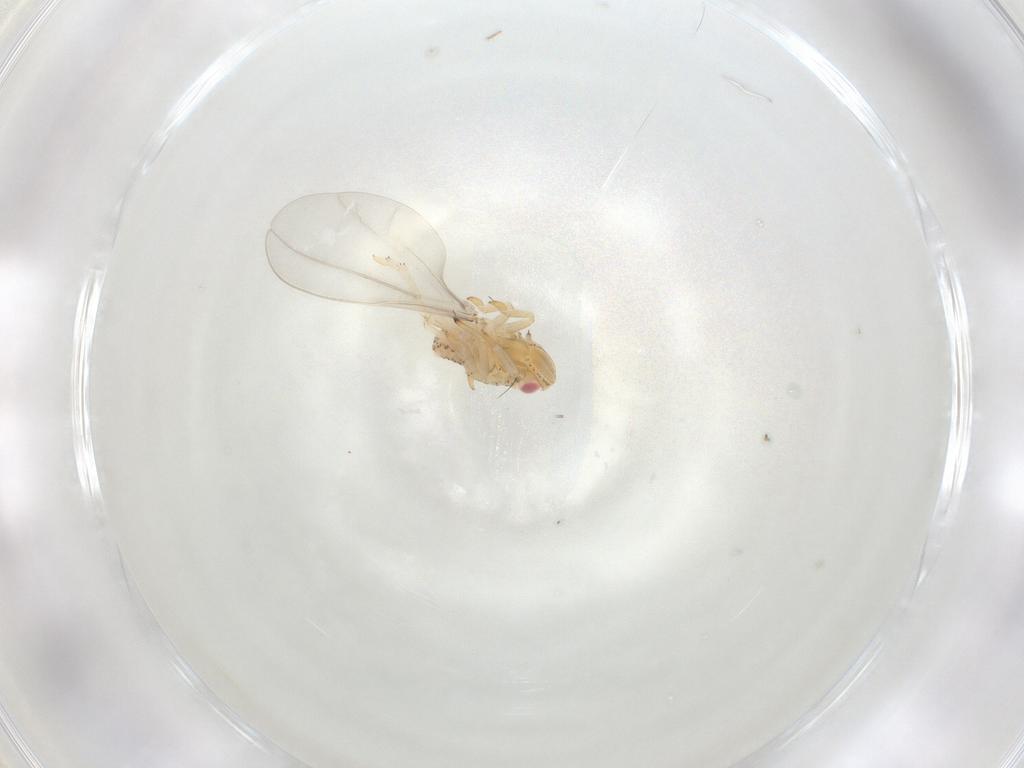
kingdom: Animalia
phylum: Arthropoda
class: Insecta
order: Hemiptera
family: Tropiduchidae
